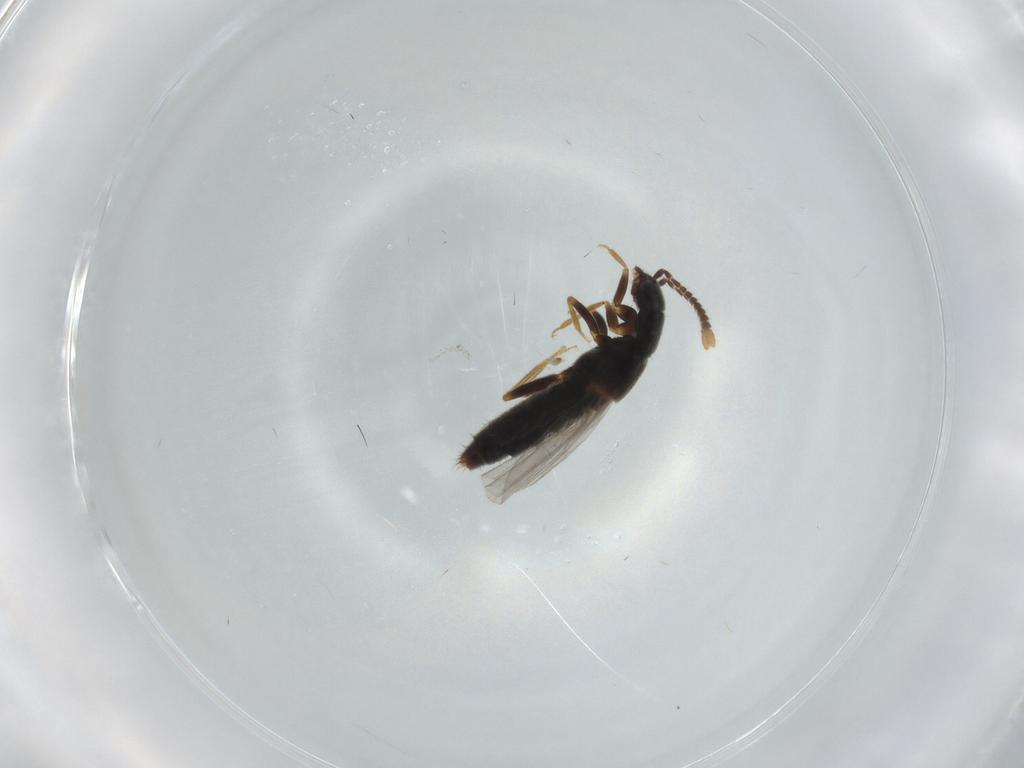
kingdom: Animalia
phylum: Arthropoda
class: Insecta
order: Coleoptera
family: Staphylinidae
